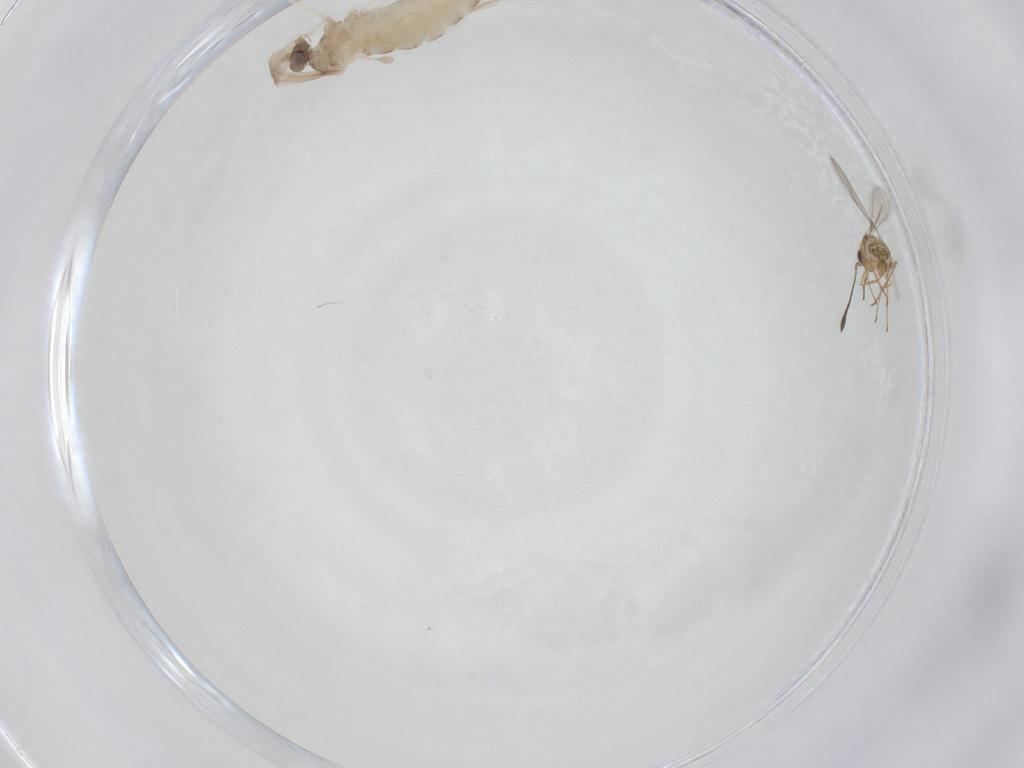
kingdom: Animalia
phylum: Arthropoda
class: Insecta
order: Hymenoptera
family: Mymaridae
